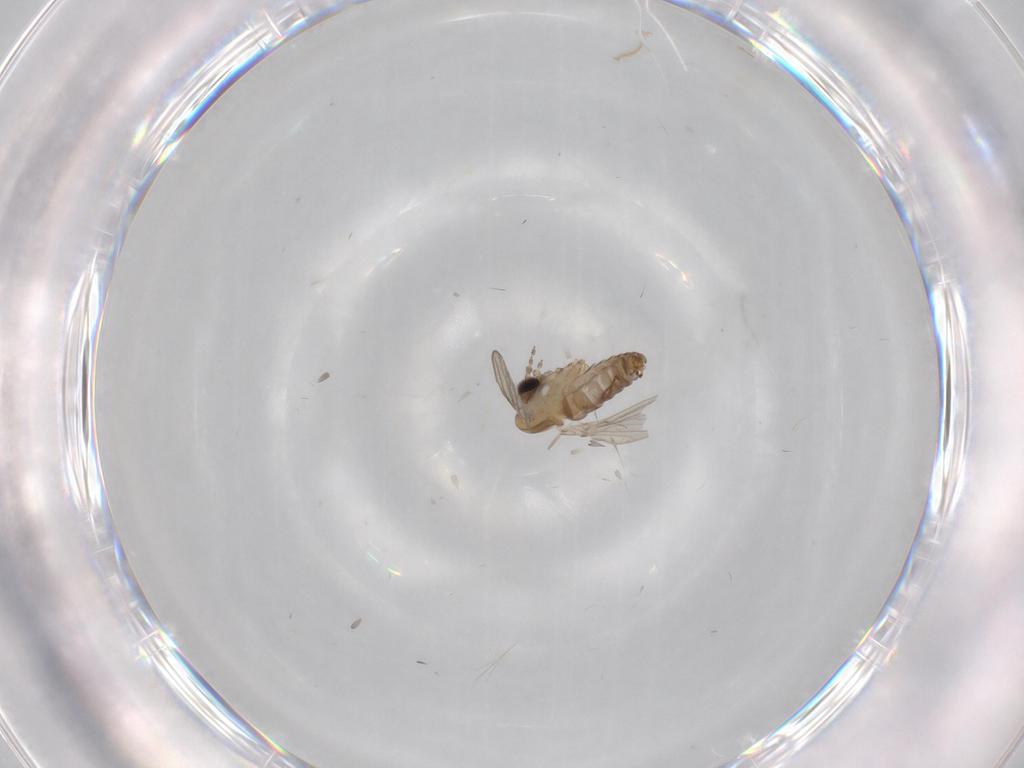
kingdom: Animalia
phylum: Arthropoda
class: Insecta
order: Diptera
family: Psychodidae
